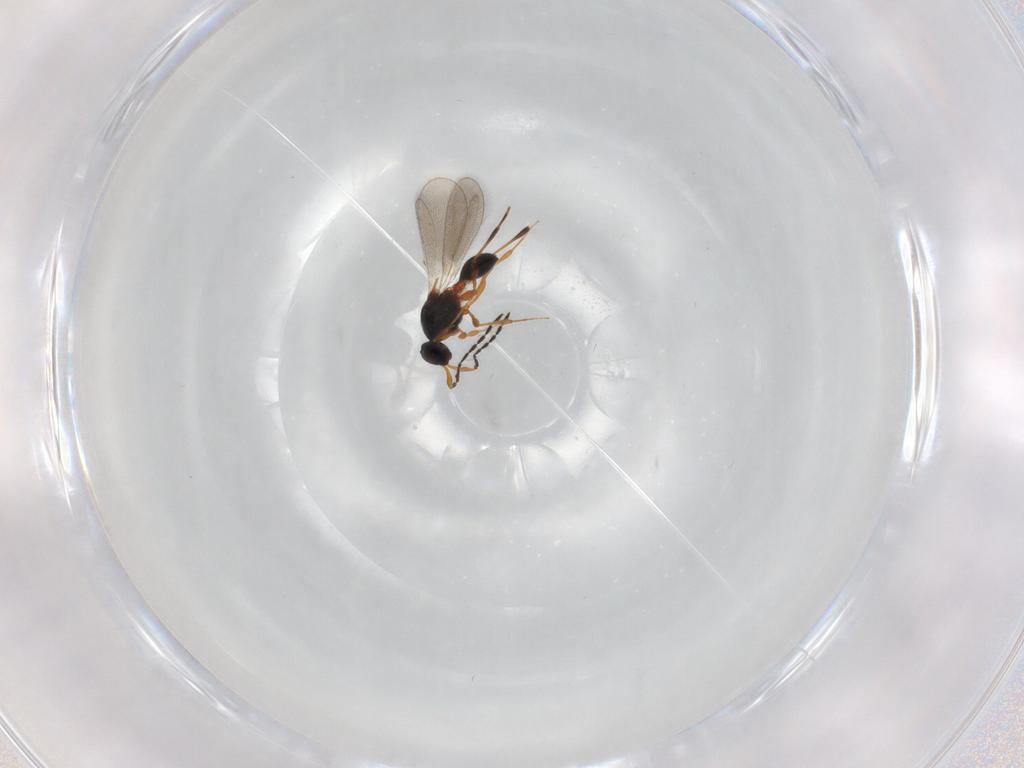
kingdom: Animalia
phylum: Arthropoda
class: Insecta
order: Hymenoptera
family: Platygastridae
